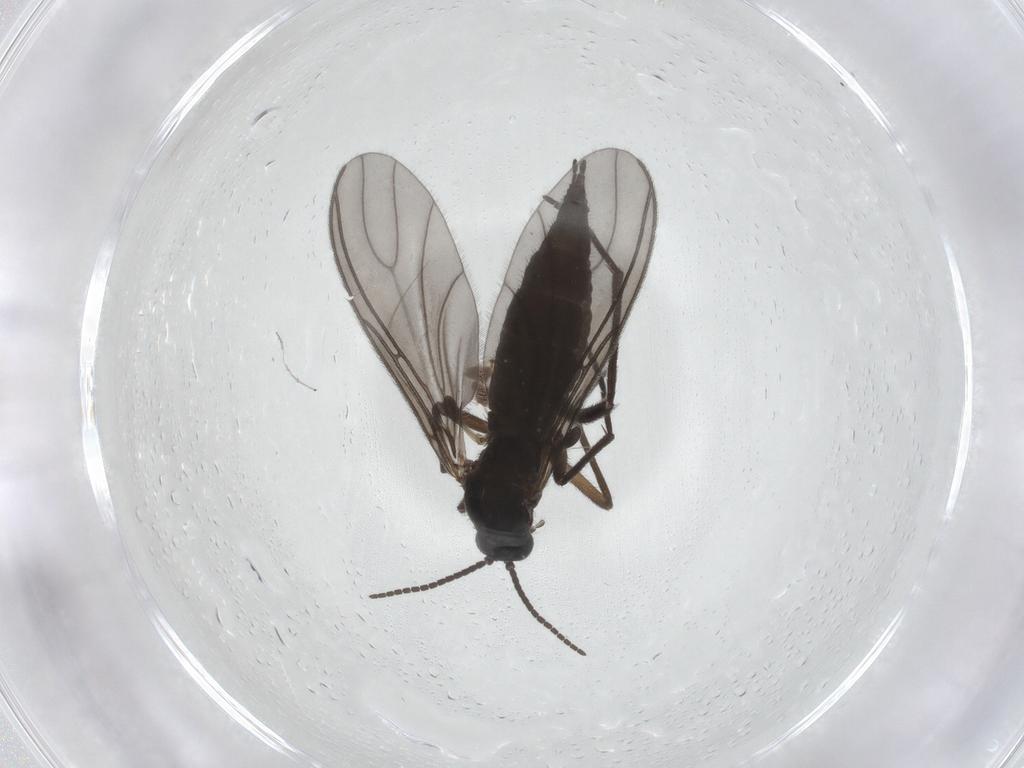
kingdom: Animalia
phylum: Arthropoda
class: Insecta
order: Diptera
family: Sciaridae
